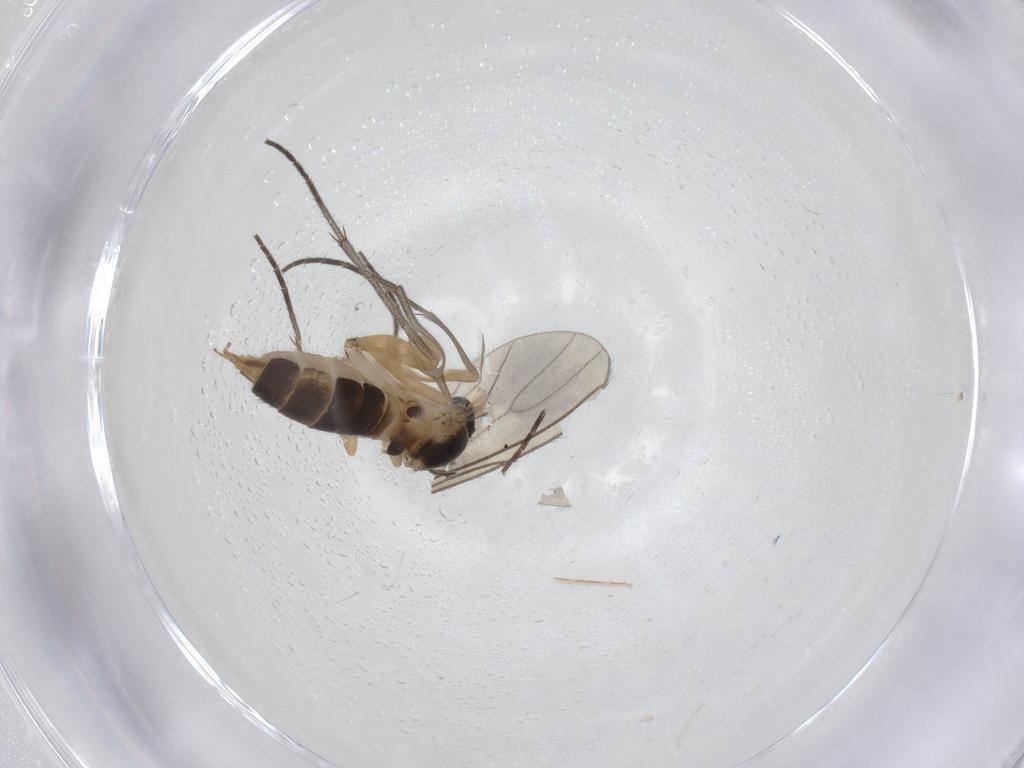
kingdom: Animalia
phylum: Arthropoda
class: Insecta
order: Diptera
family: Sciaridae
